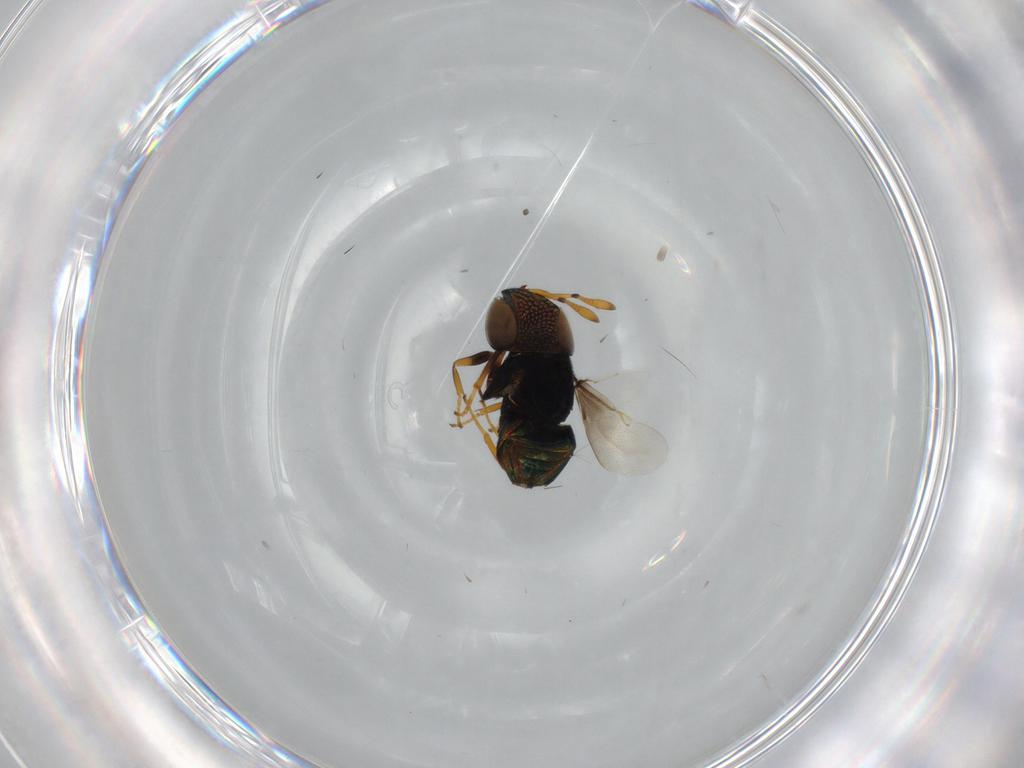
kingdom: Animalia
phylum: Arthropoda
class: Insecta
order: Hymenoptera
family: Encyrtidae
